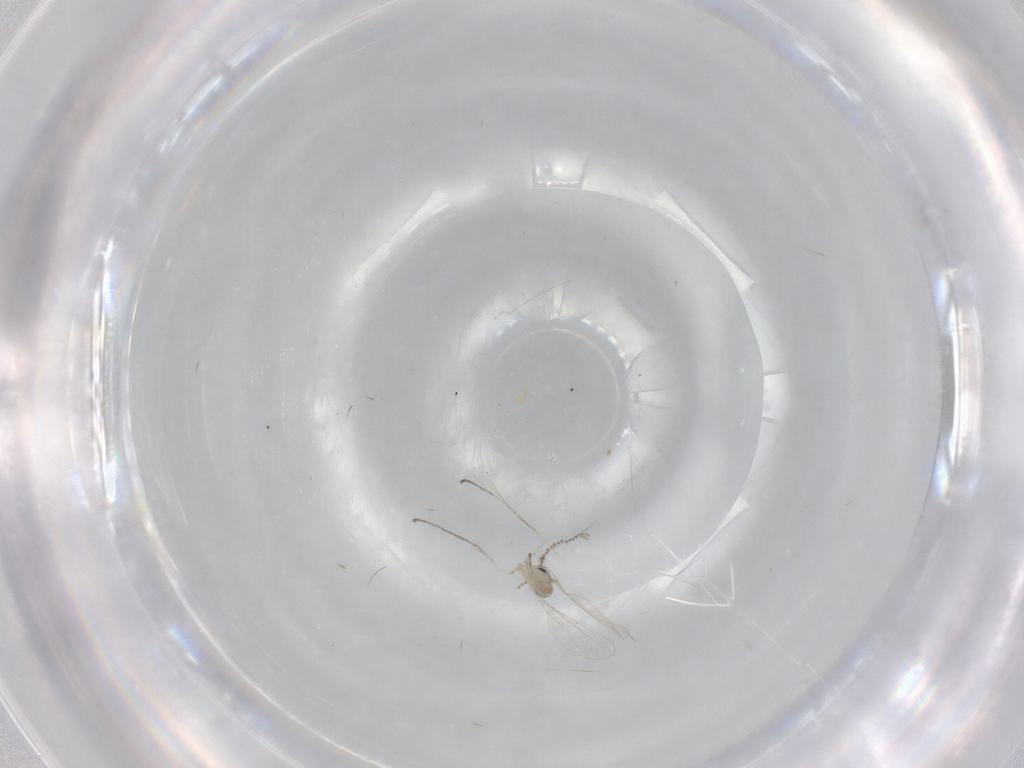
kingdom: Animalia
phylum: Arthropoda
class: Insecta
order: Diptera
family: Cecidomyiidae
